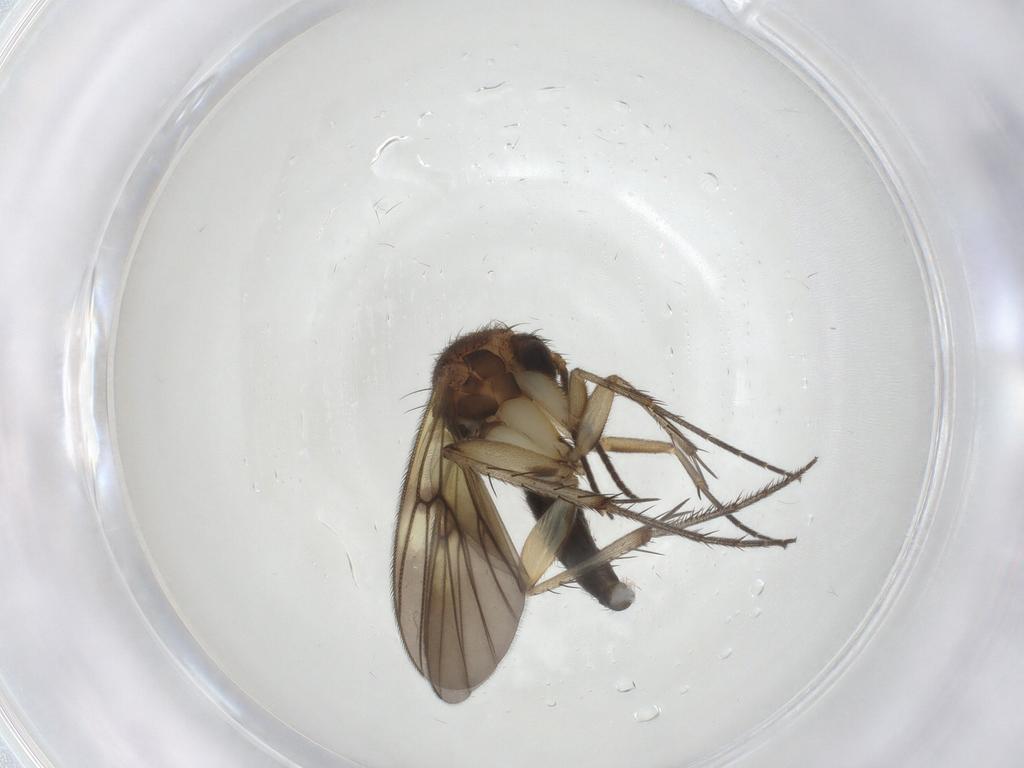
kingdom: Animalia
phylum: Arthropoda
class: Insecta
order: Diptera
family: Mycetophilidae
